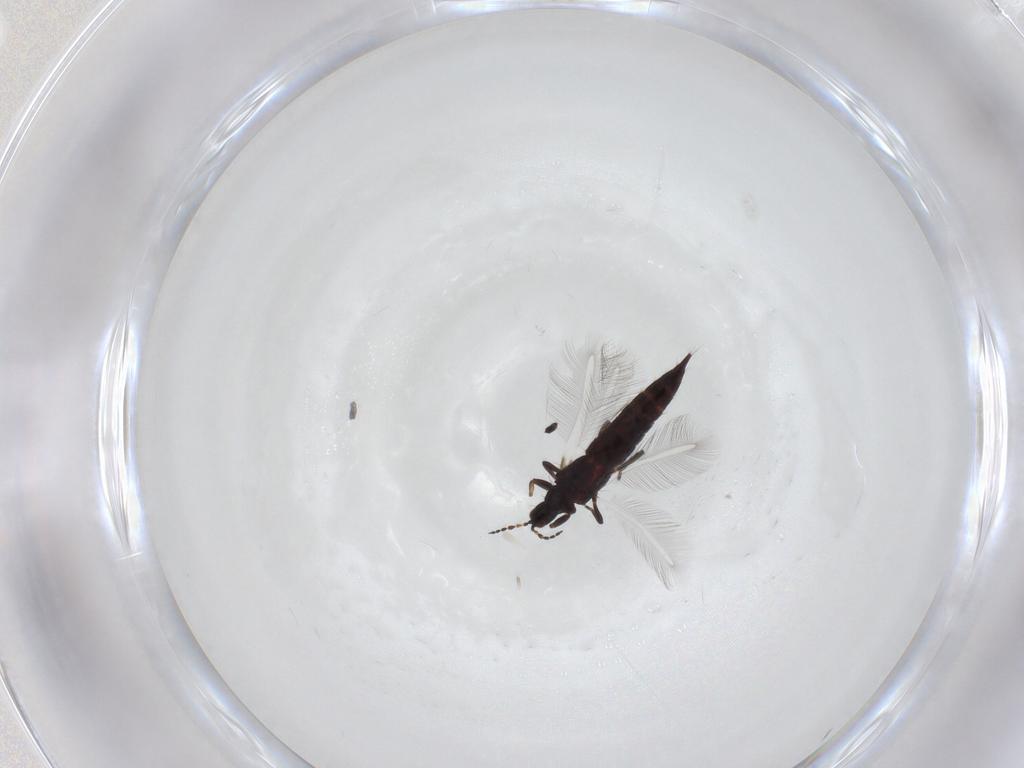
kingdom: Animalia
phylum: Arthropoda
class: Insecta
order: Thysanoptera
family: Phlaeothripidae
